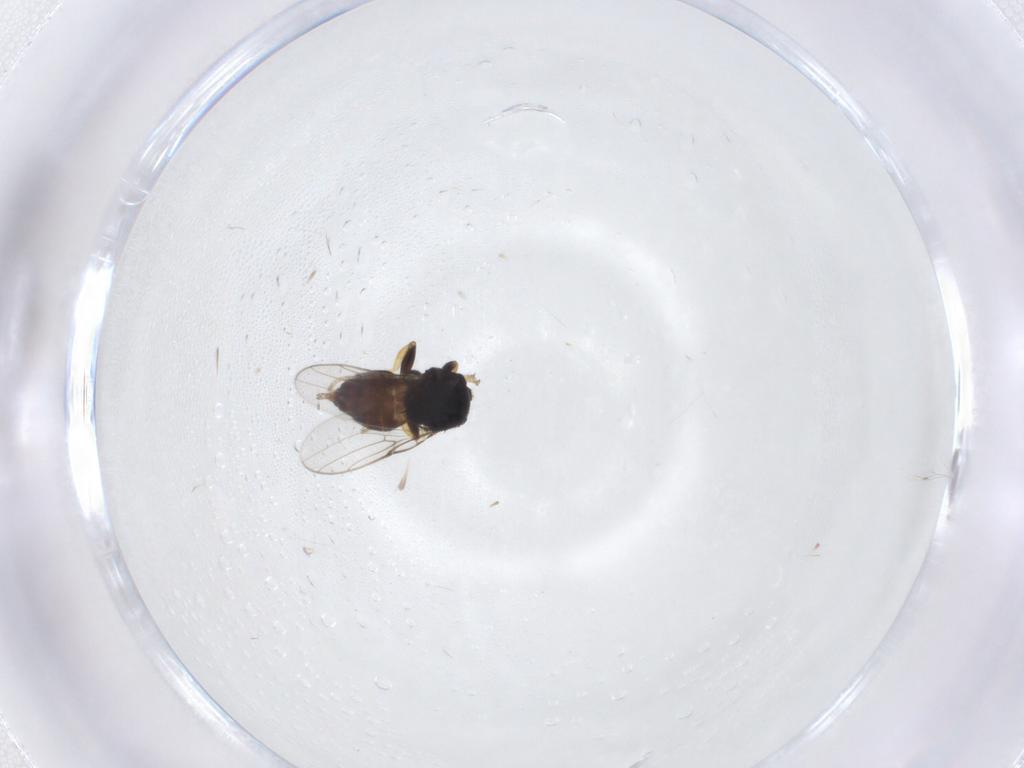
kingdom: Animalia
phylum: Arthropoda
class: Insecta
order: Diptera
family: Chloropidae
